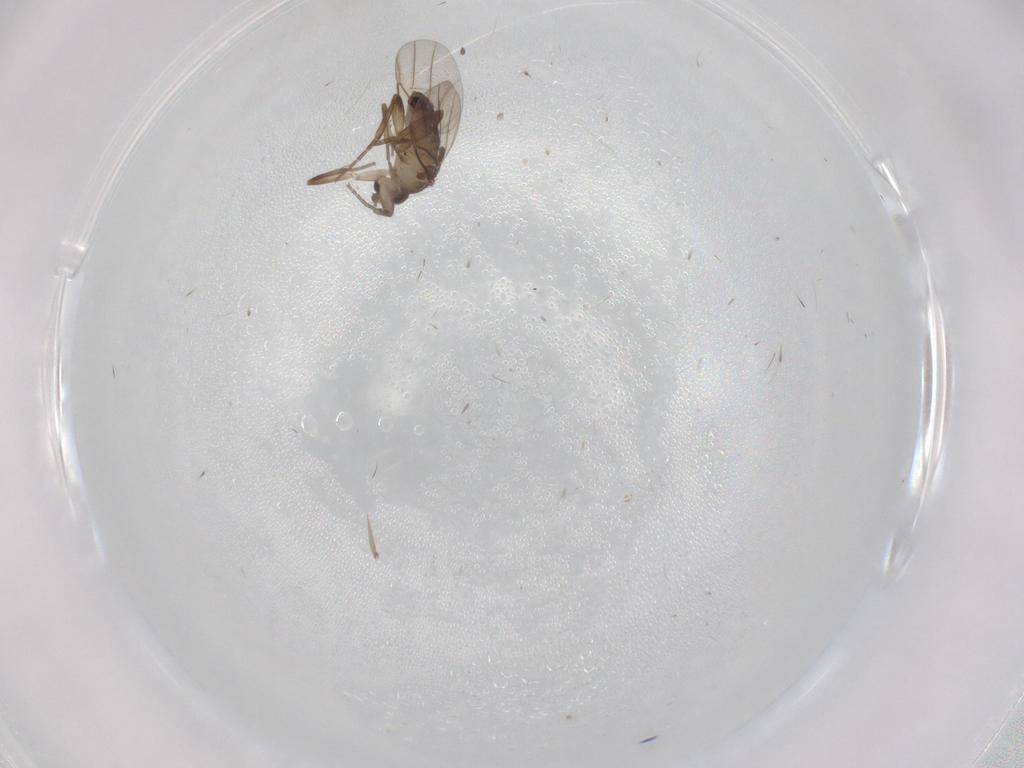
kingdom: Animalia
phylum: Arthropoda
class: Insecta
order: Diptera
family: Phoridae
